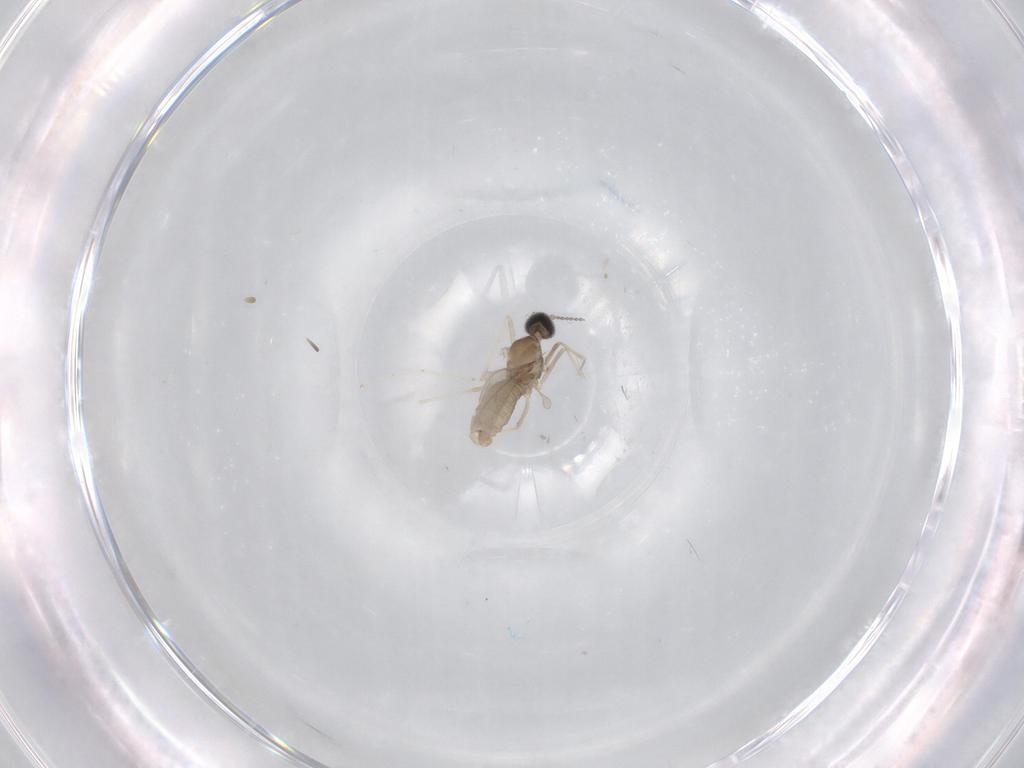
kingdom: Animalia
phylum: Arthropoda
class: Insecta
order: Diptera
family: Cecidomyiidae
